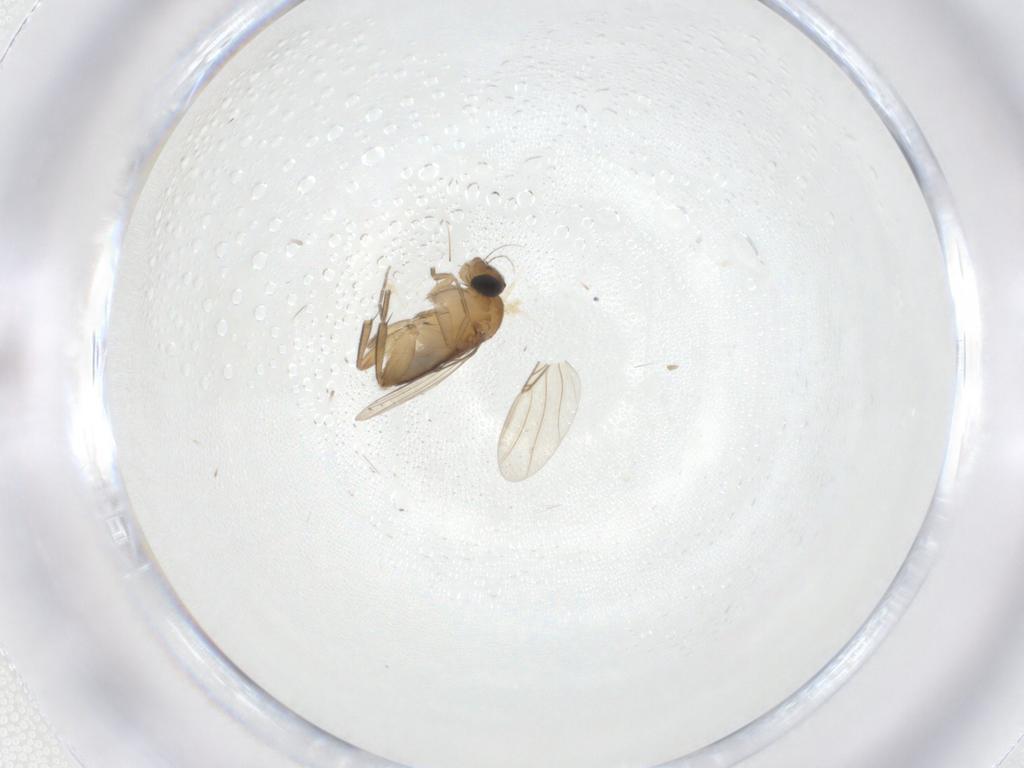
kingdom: Animalia
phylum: Arthropoda
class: Insecta
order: Diptera
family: Phoridae
